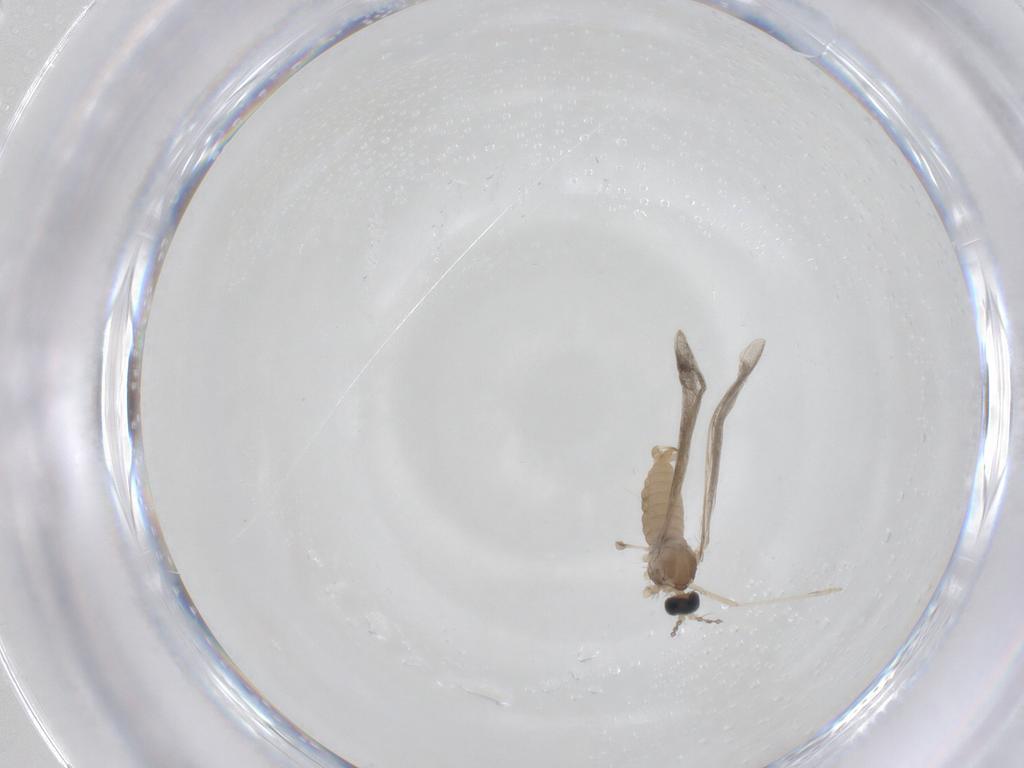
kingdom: Animalia
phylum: Arthropoda
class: Insecta
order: Diptera
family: Cecidomyiidae
